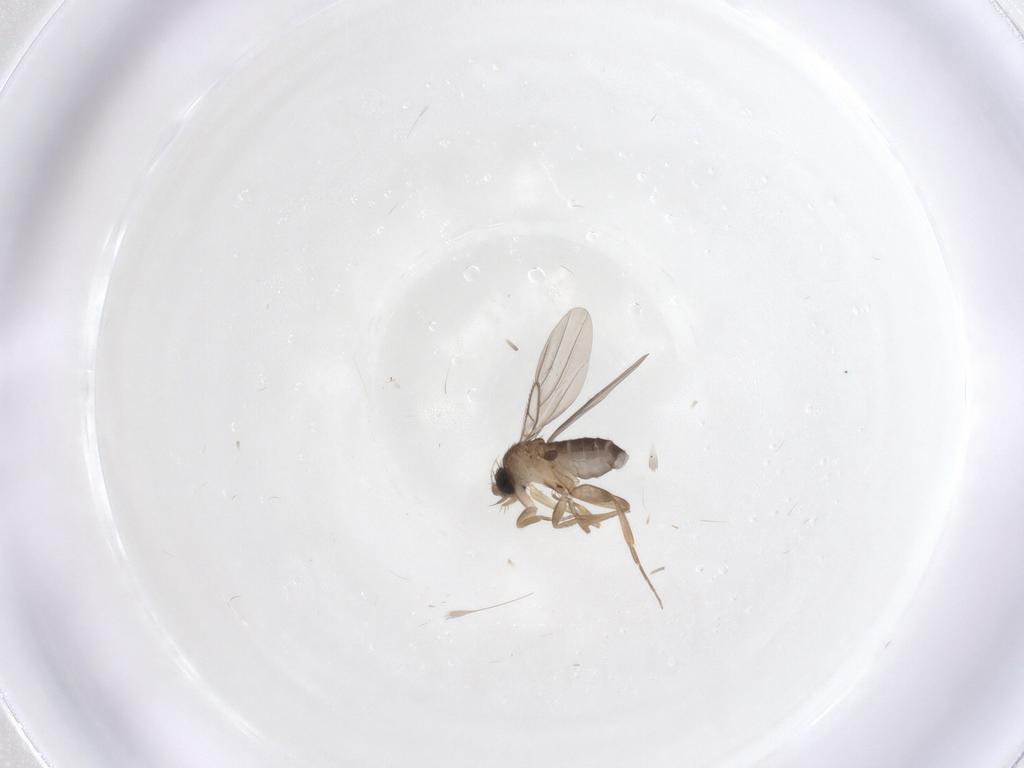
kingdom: Animalia
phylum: Arthropoda
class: Insecta
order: Diptera
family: Phoridae
